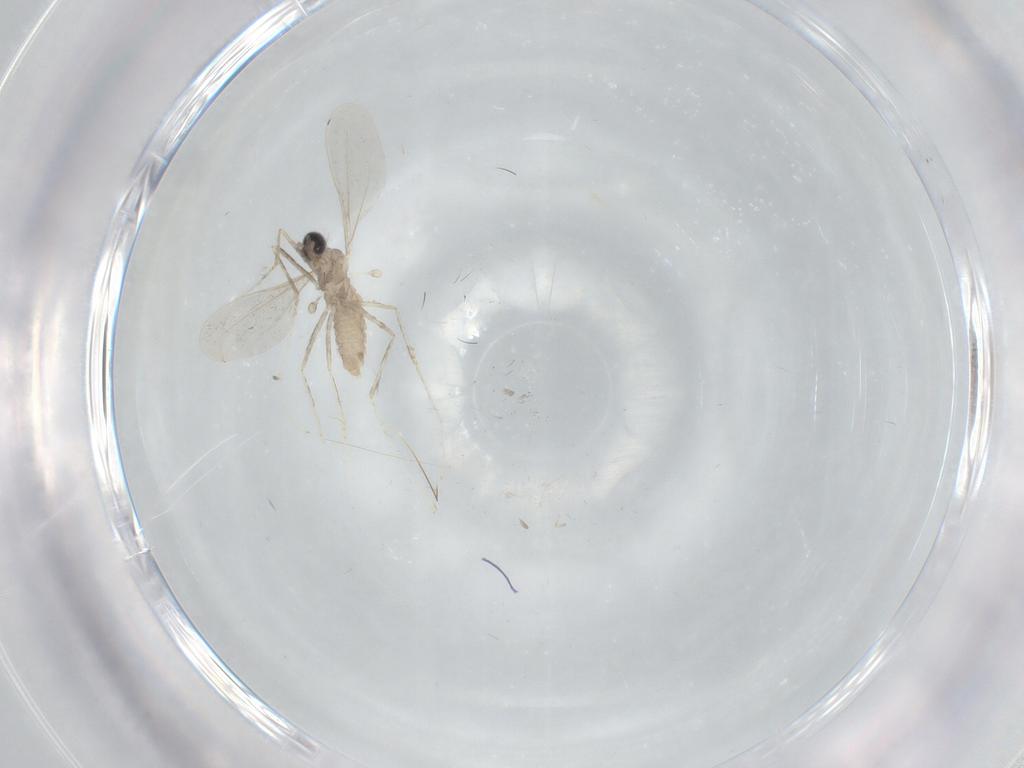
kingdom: Animalia
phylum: Arthropoda
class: Insecta
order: Diptera
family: Cecidomyiidae
